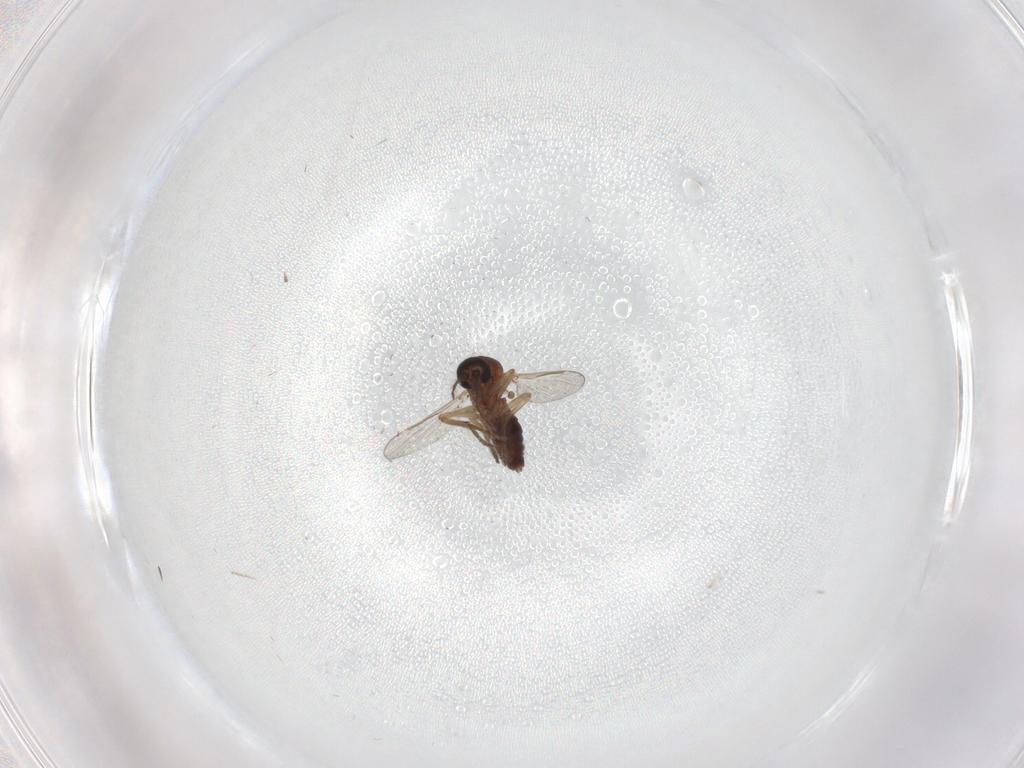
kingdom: Animalia
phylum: Arthropoda
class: Insecta
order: Diptera
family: Ceratopogonidae
